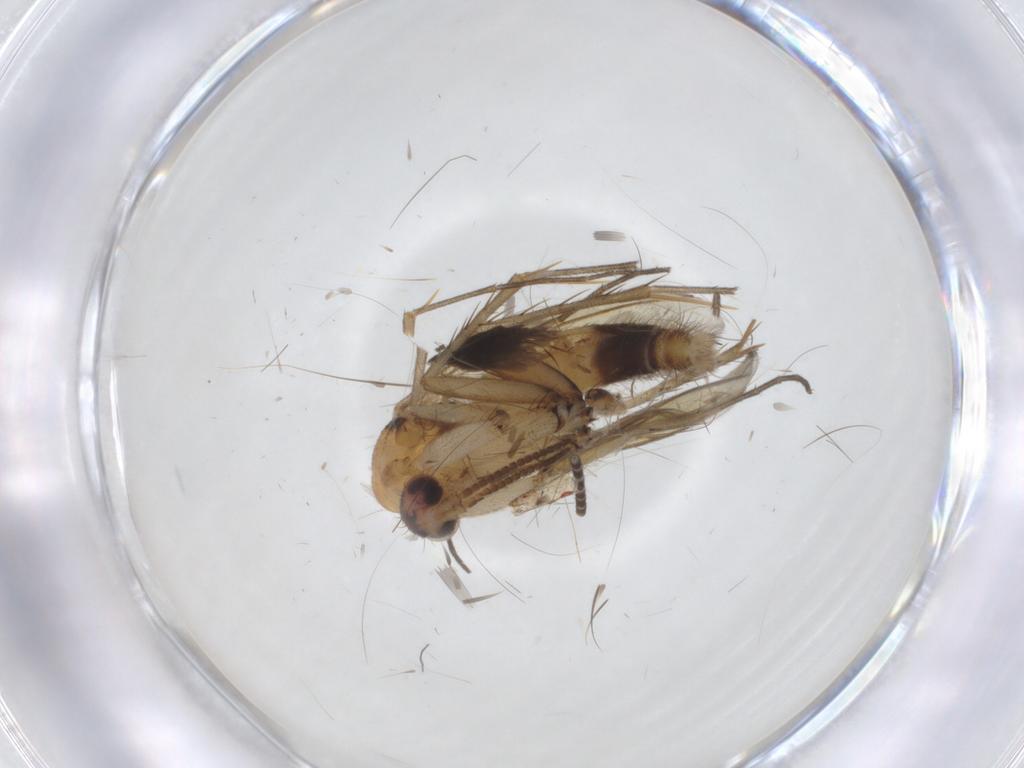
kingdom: Animalia
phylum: Arthropoda
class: Insecta
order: Diptera
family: Mycetophilidae
